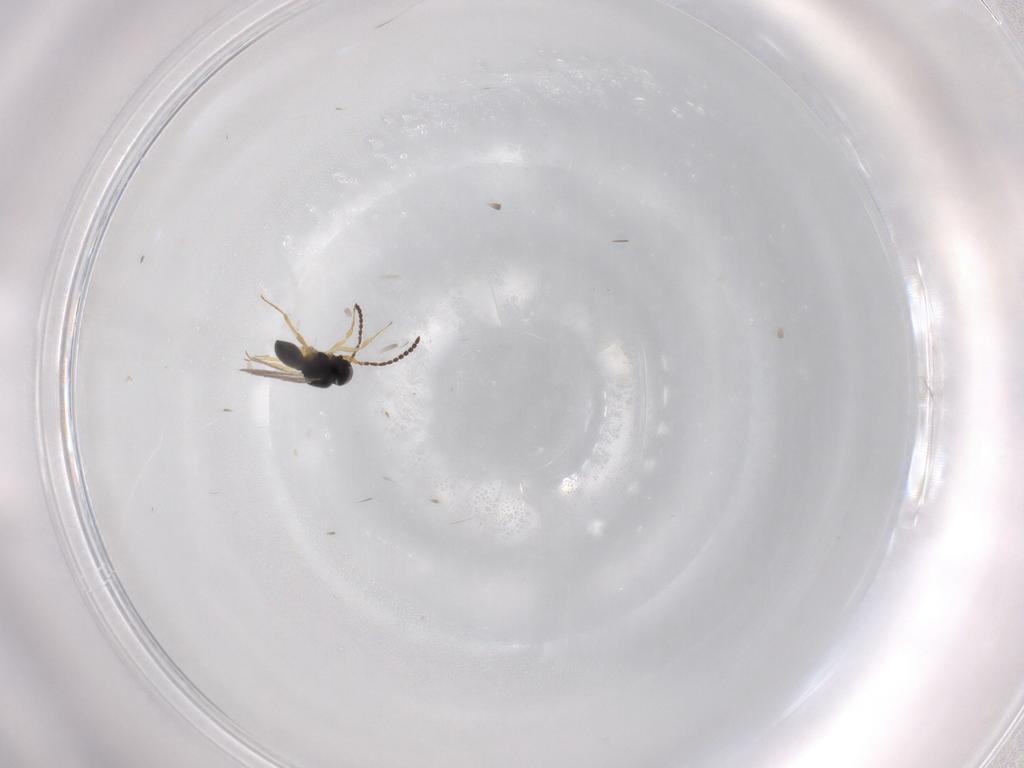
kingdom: Animalia
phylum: Arthropoda
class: Insecta
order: Hymenoptera
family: Scelionidae
